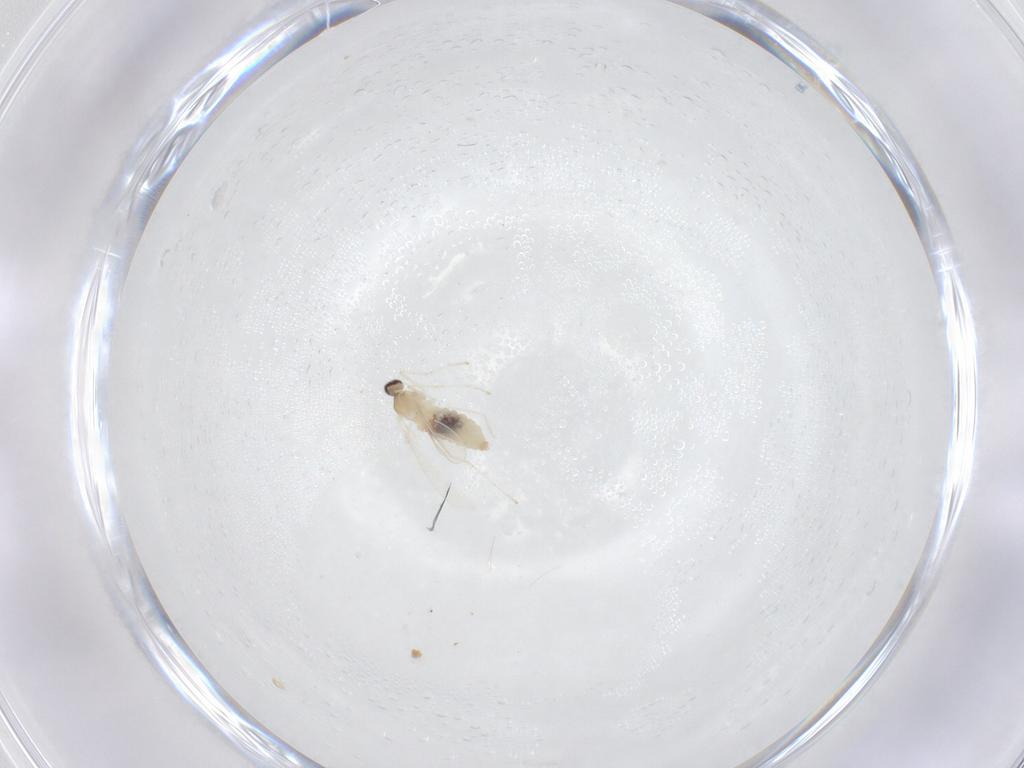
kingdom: Animalia
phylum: Arthropoda
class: Insecta
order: Diptera
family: Cecidomyiidae
